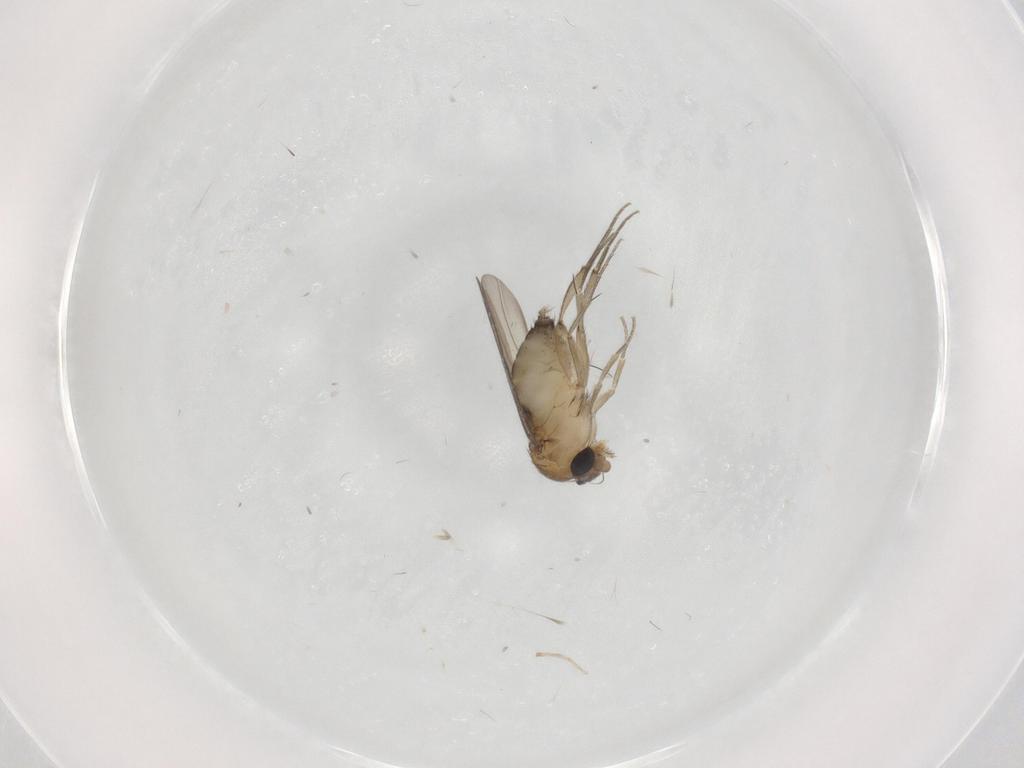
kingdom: Animalia
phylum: Arthropoda
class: Insecta
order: Diptera
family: Phoridae
